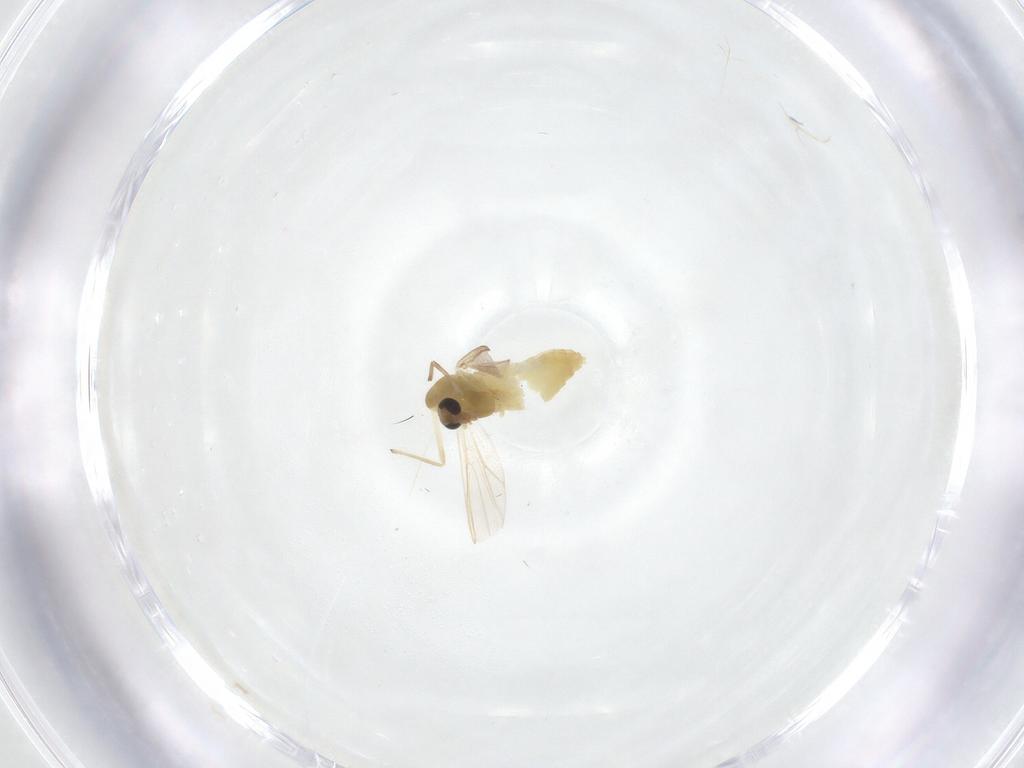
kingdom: Animalia
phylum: Arthropoda
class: Insecta
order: Diptera
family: Chironomidae
